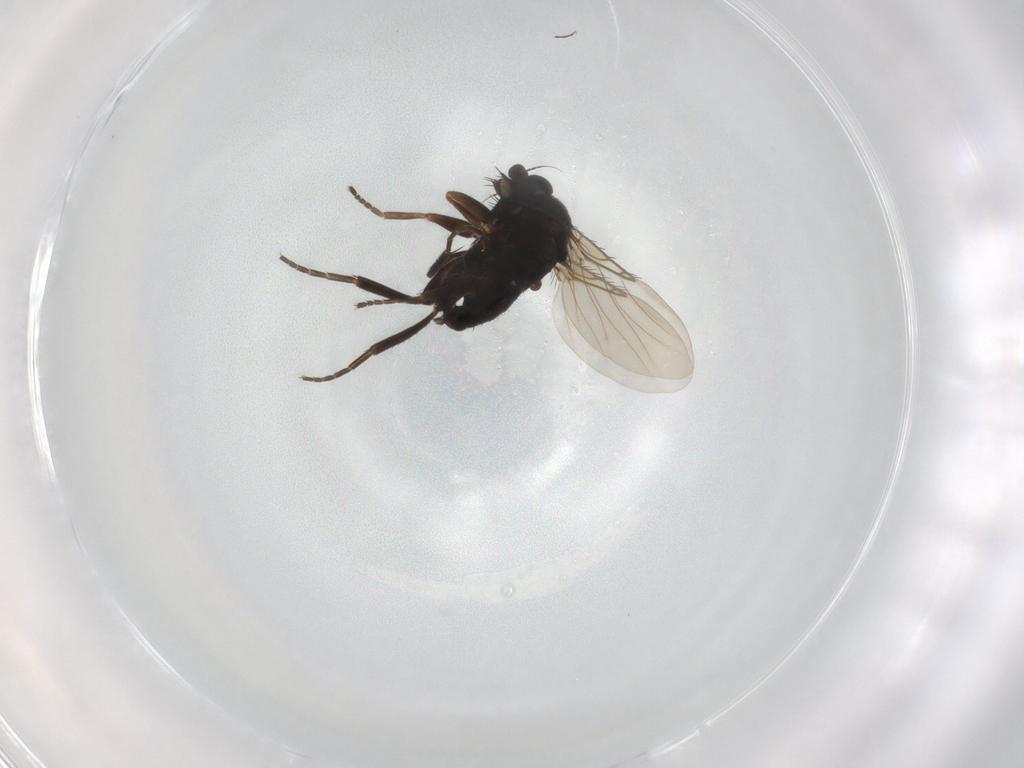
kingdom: Animalia
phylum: Arthropoda
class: Insecta
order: Diptera
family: Phoridae
